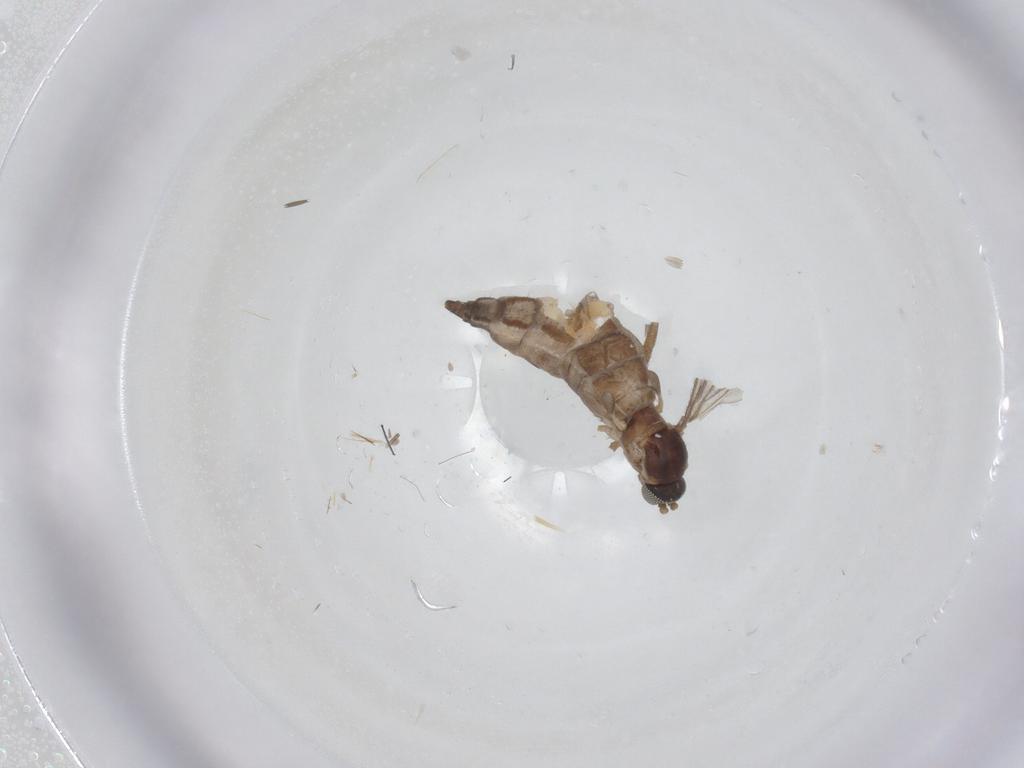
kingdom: Animalia
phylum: Arthropoda
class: Insecta
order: Diptera
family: Sciaridae
